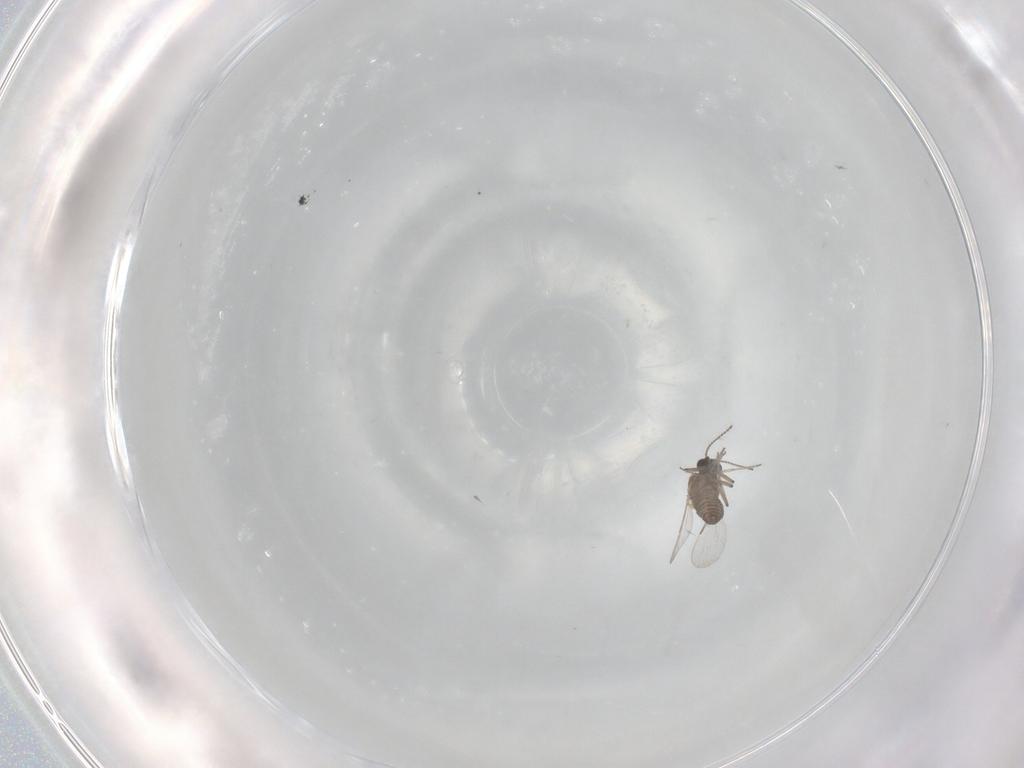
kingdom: Animalia
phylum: Arthropoda
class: Insecta
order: Diptera
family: Ceratopogonidae
